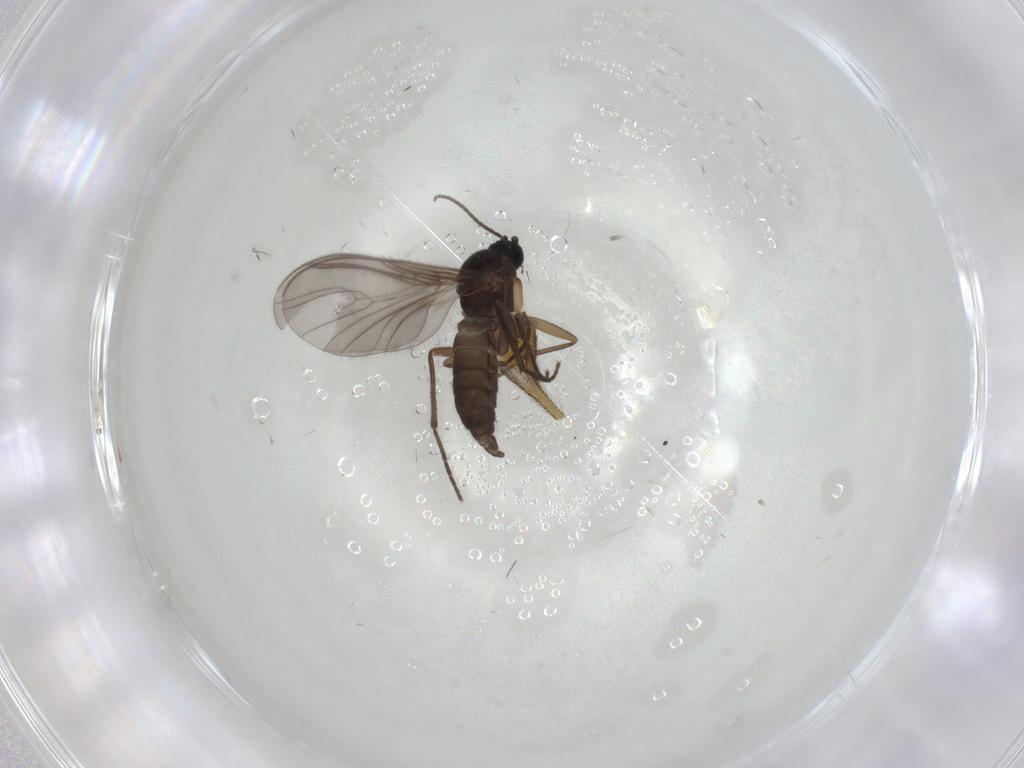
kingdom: Animalia
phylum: Arthropoda
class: Insecta
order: Diptera
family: Sciaridae
